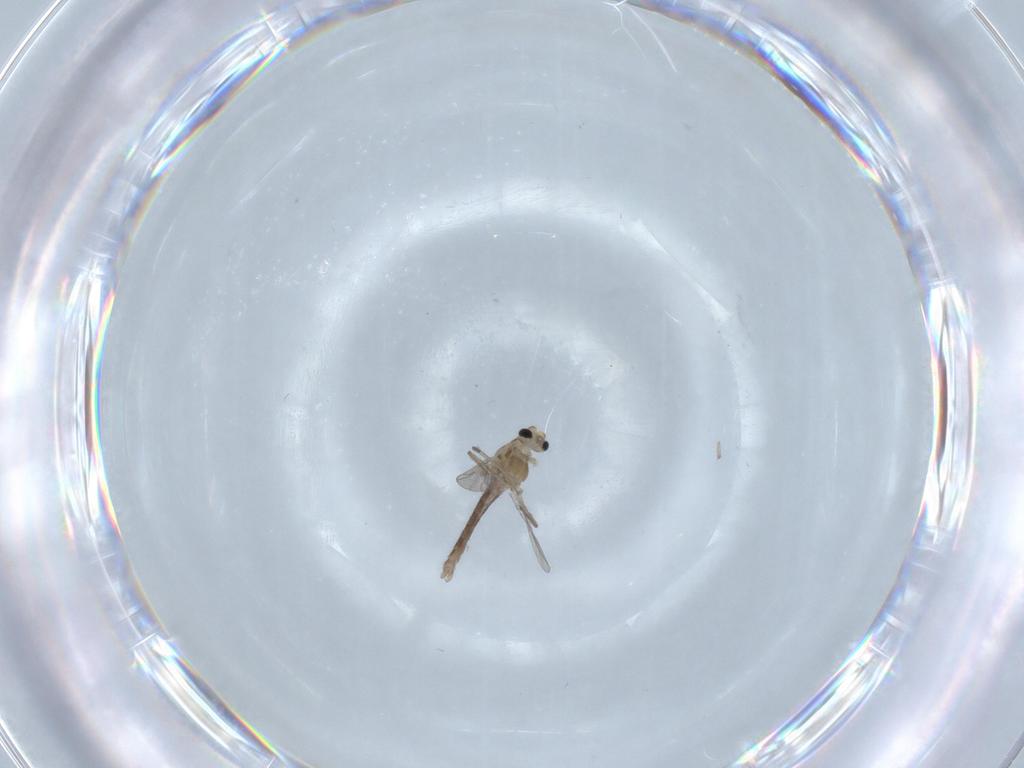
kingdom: Animalia
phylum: Arthropoda
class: Insecta
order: Diptera
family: Chironomidae
